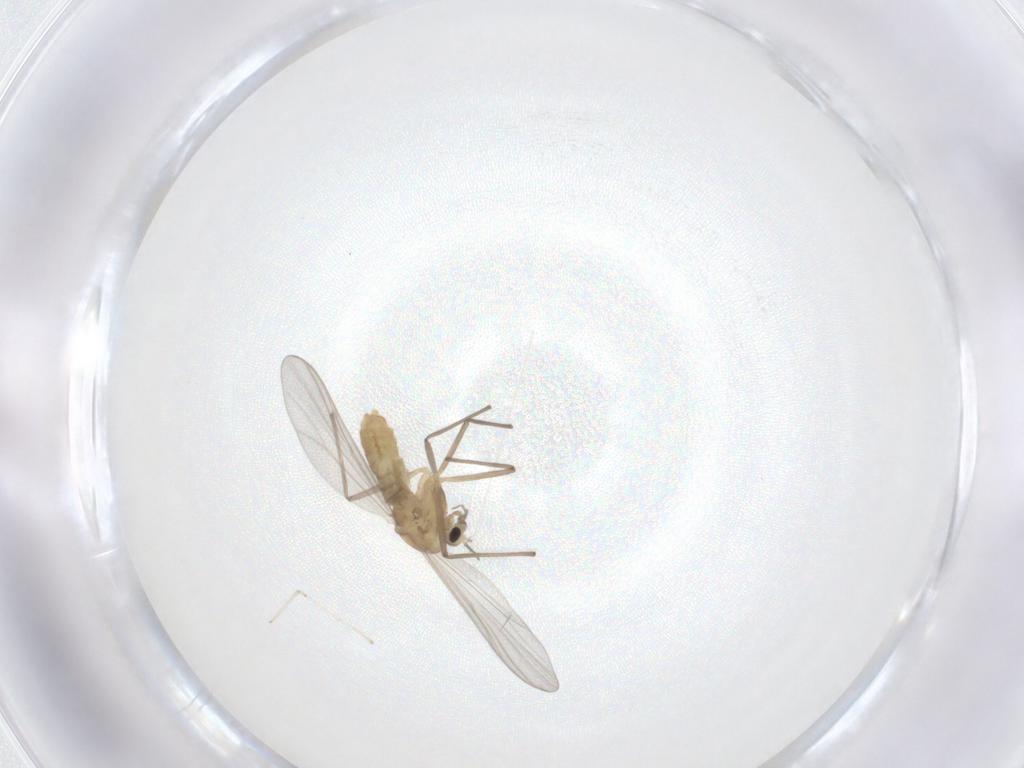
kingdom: Animalia
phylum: Arthropoda
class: Insecta
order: Diptera
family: Chironomidae
